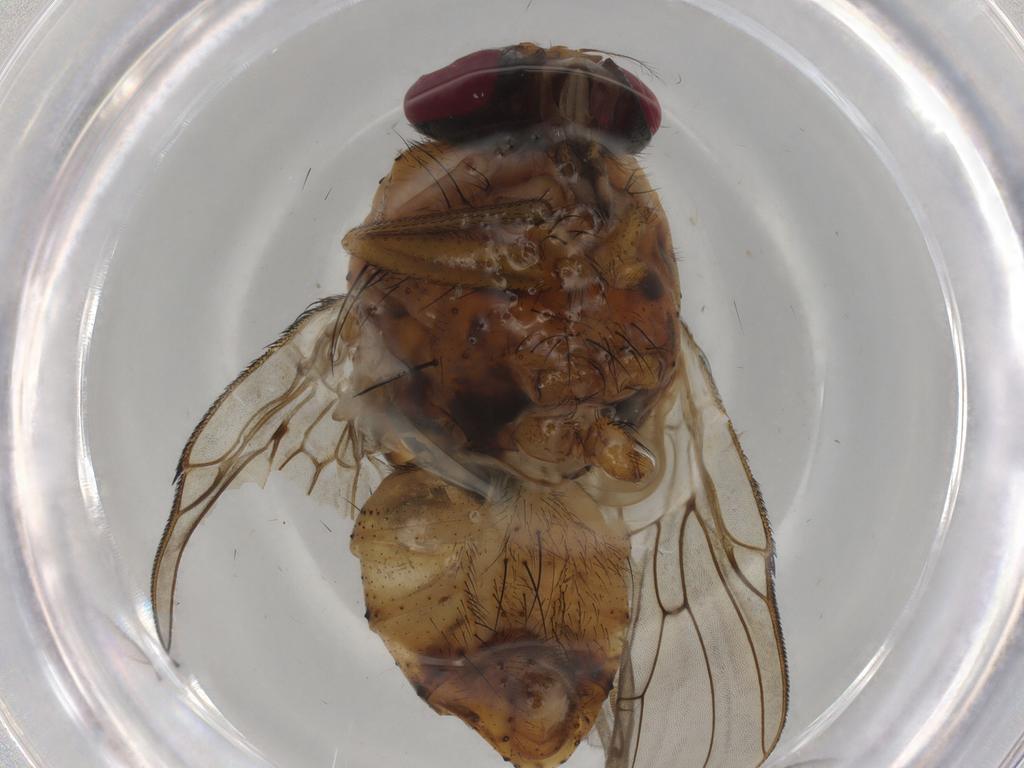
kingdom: Animalia
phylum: Arthropoda
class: Insecta
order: Diptera
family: Muscidae
